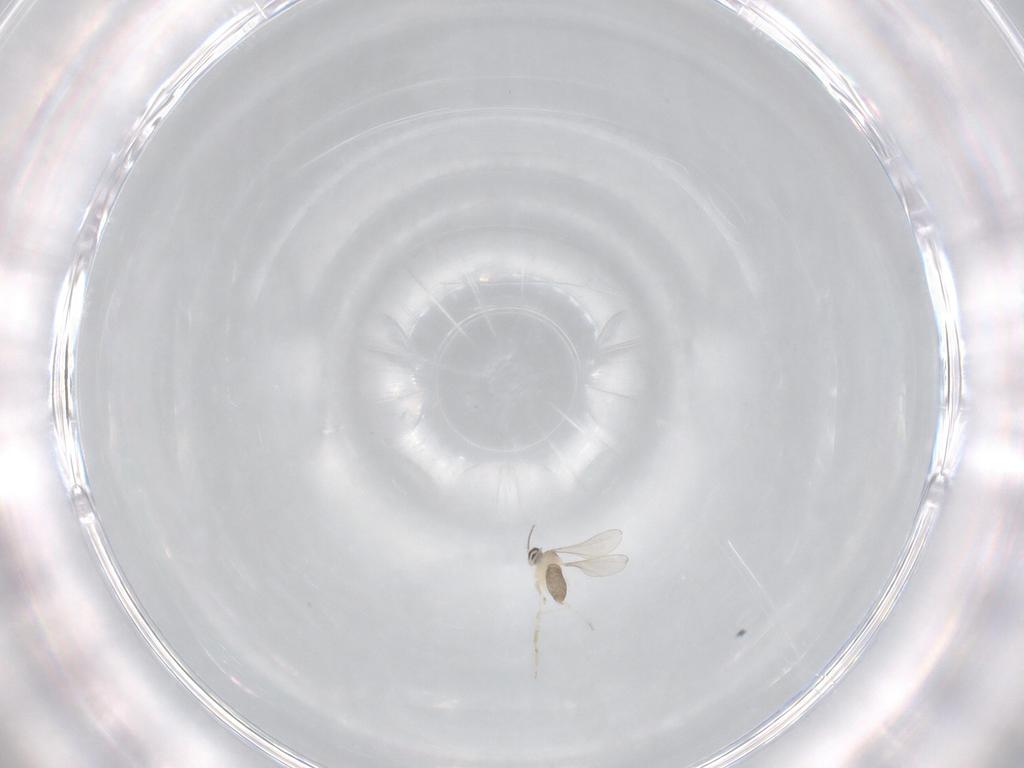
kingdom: Animalia
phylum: Arthropoda
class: Insecta
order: Diptera
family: Cecidomyiidae
